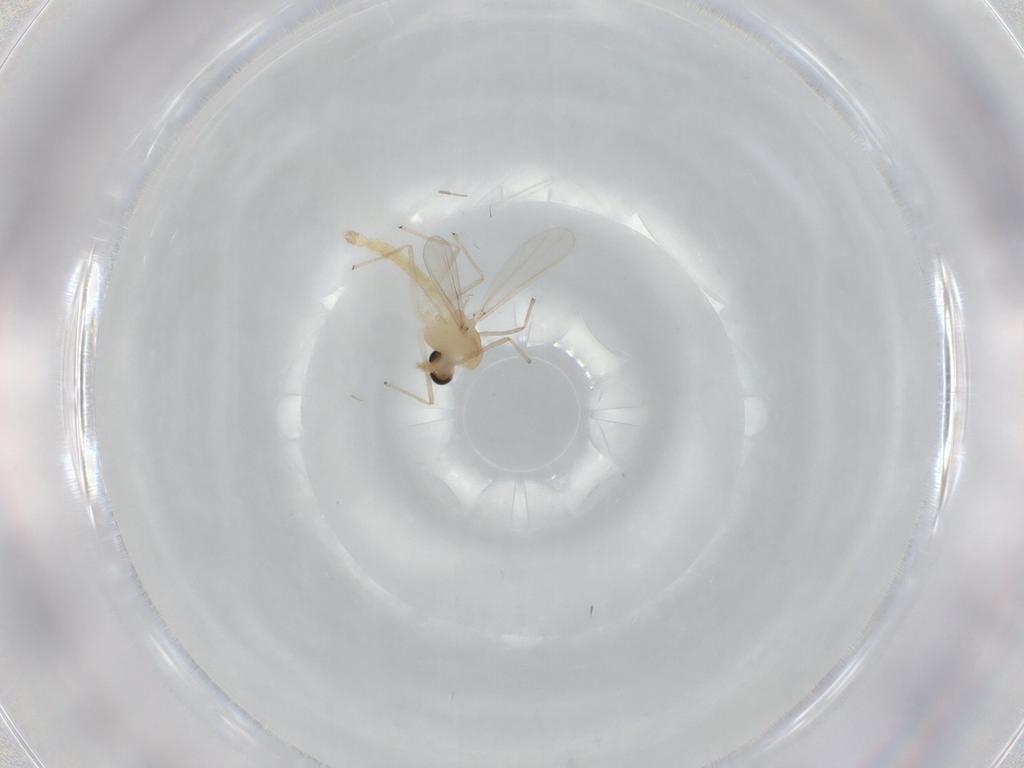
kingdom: Animalia
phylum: Arthropoda
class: Insecta
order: Diptera
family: Chironomidae
